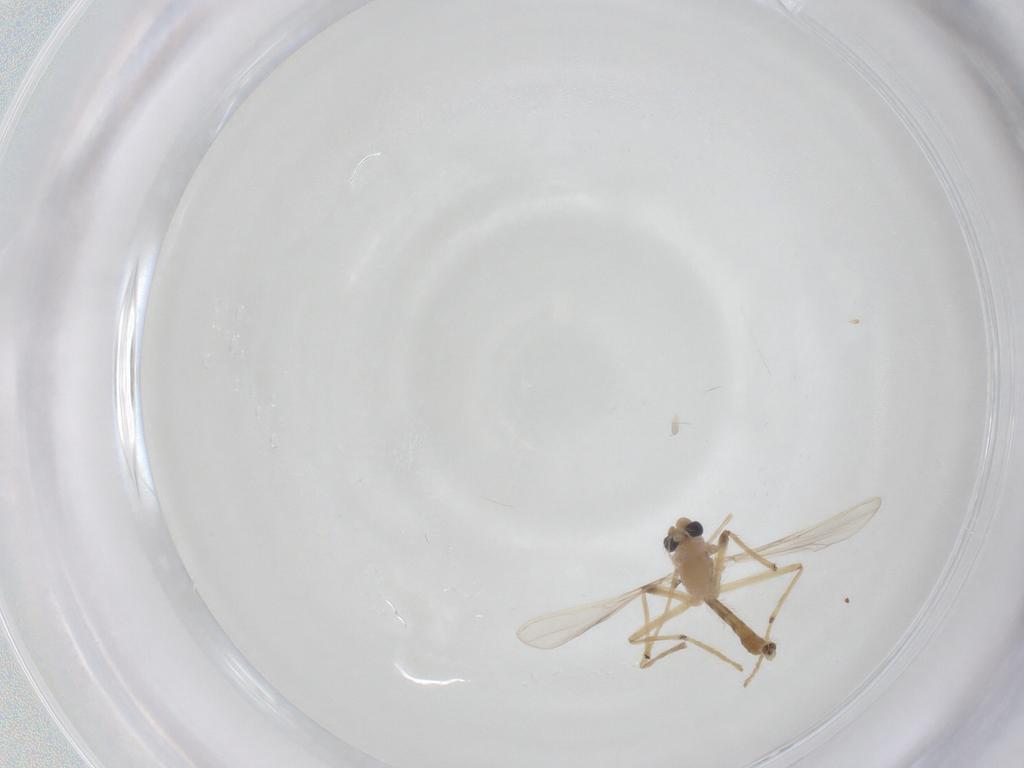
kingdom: Animalia
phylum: Arthropoda
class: Insecta
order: Diptera
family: Chironomidae
